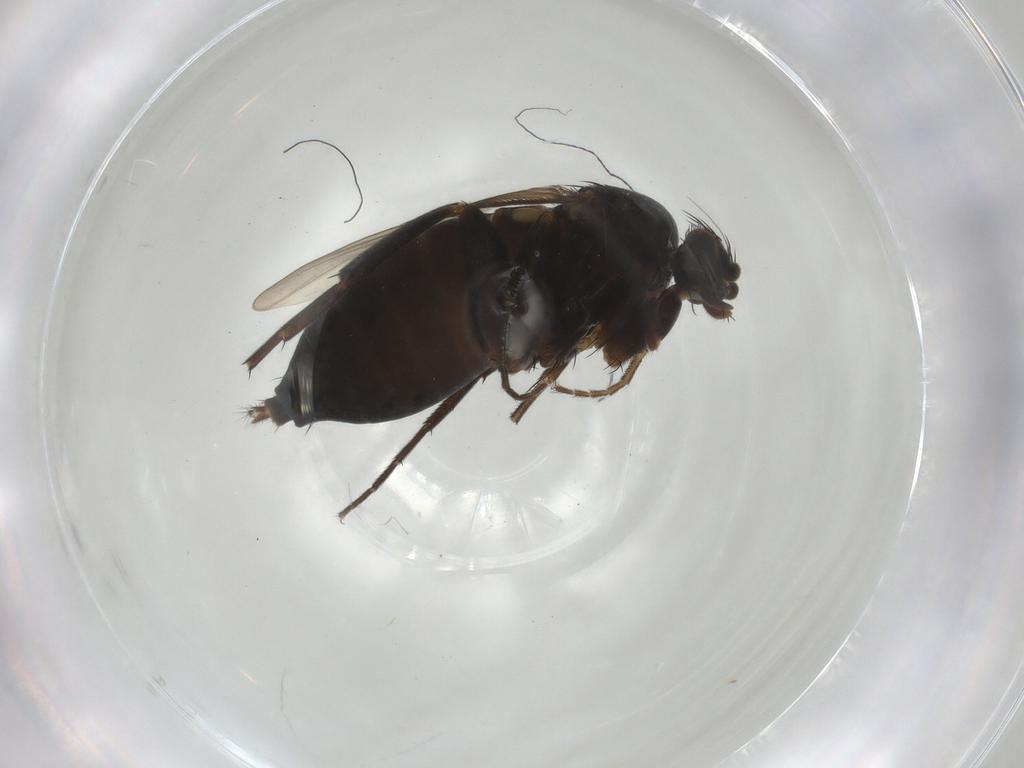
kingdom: Animalia
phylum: Arthropoda
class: Insecta
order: Diptera
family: Phoridae
